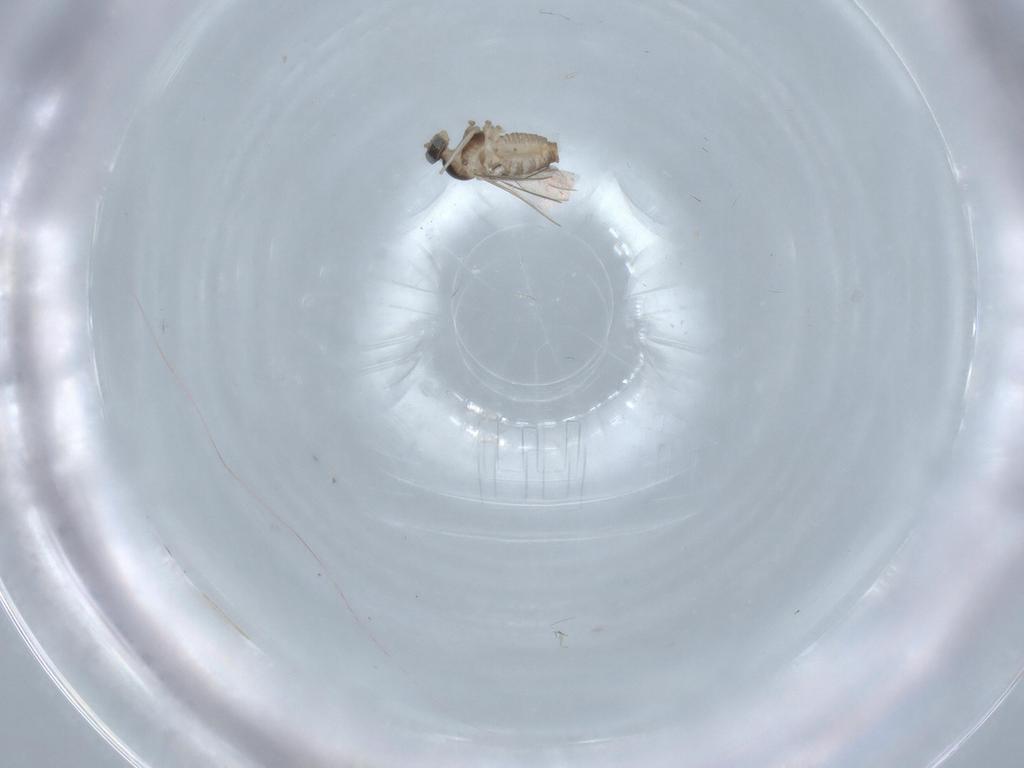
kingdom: Animalia
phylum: Arthropoda
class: Insecta
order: Diptera
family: Cecidomyiidae
